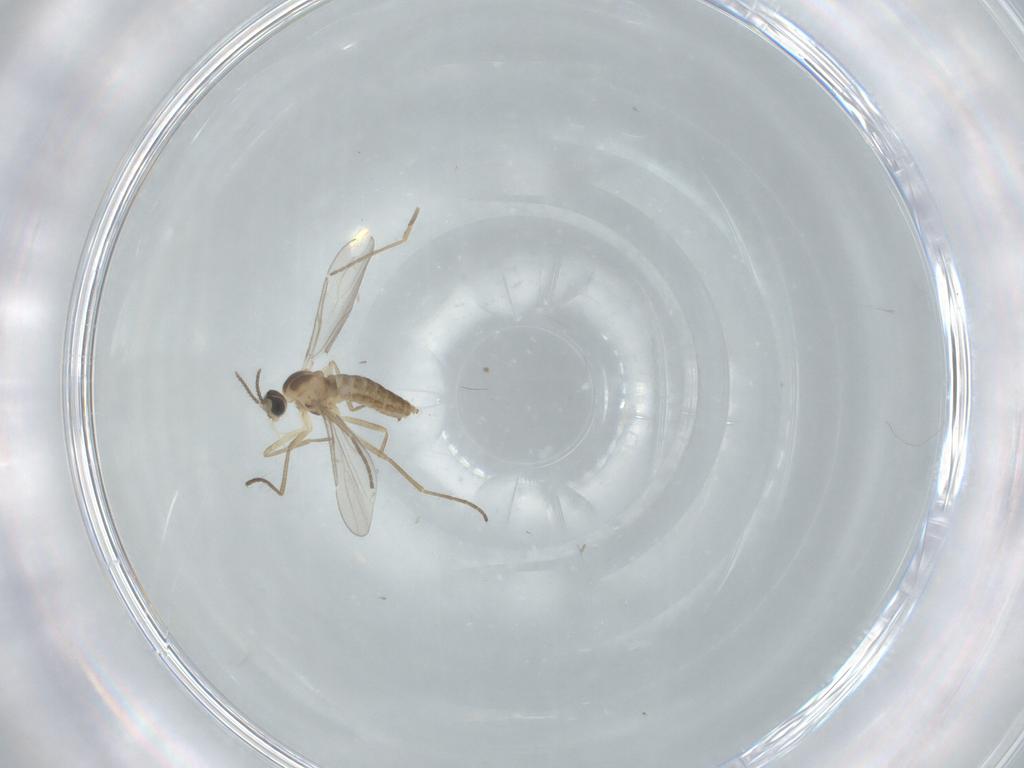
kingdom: Animalia
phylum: Arthropoda
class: Insecta
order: Diptera
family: Cecidomyiidae
